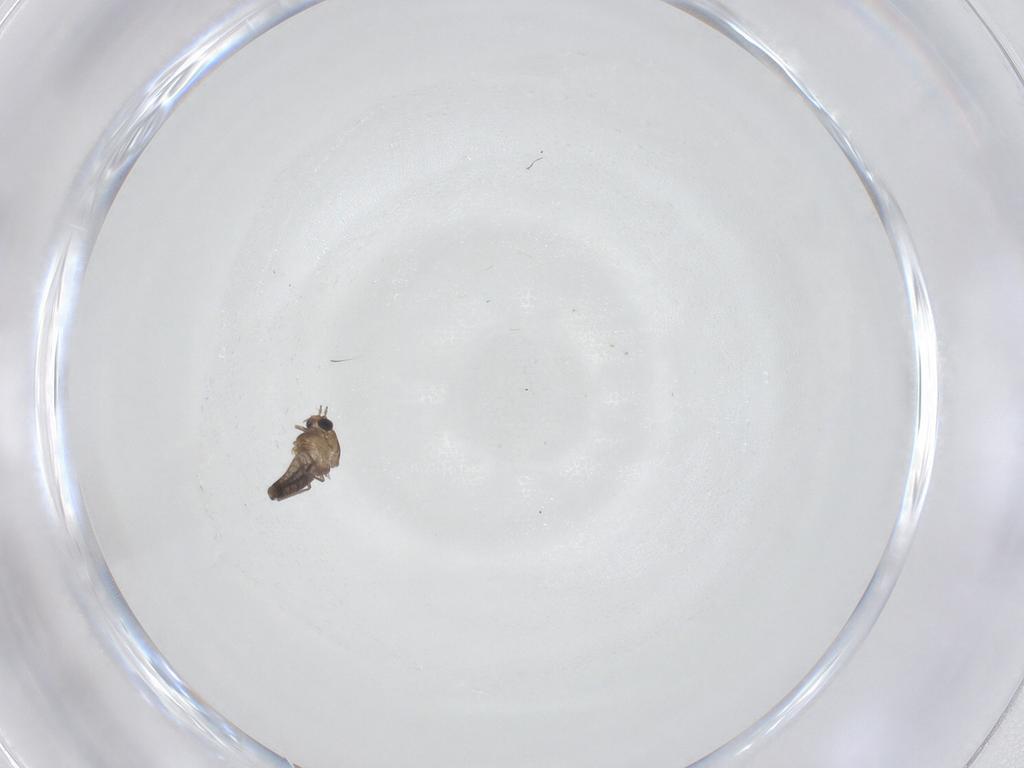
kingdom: Animalia
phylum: Arthropoda
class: Insecta
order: Diptera
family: Chironomidae
